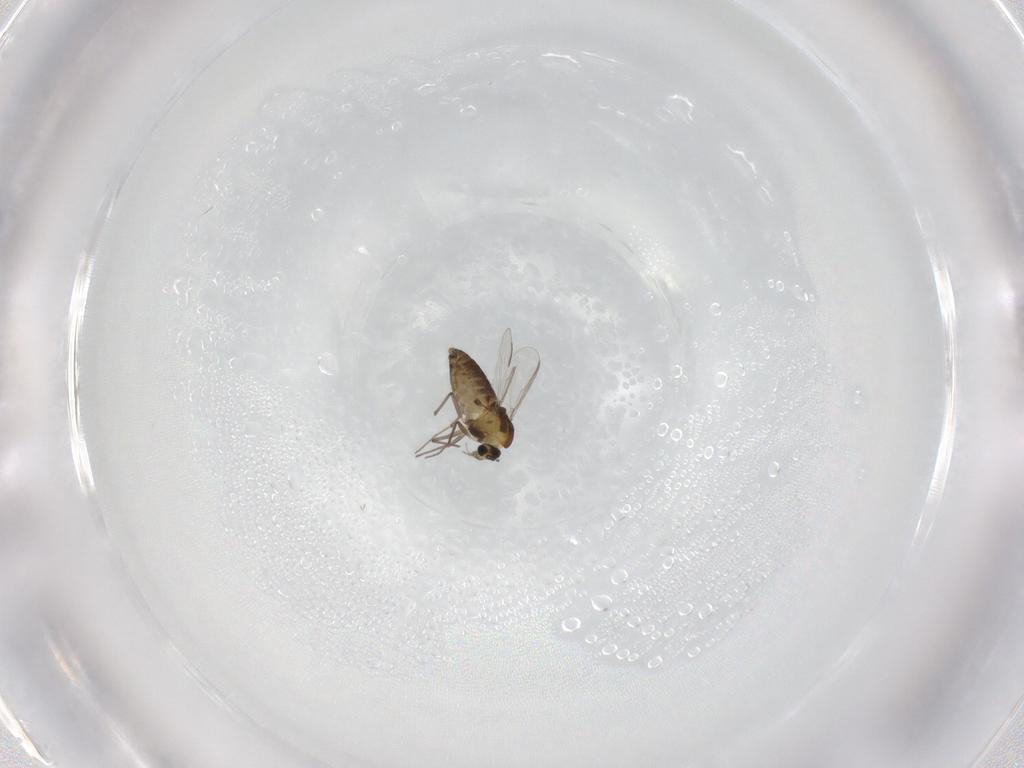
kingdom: Animalia
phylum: Arthropoda
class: Insecta
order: Diptera
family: Chironomidae
